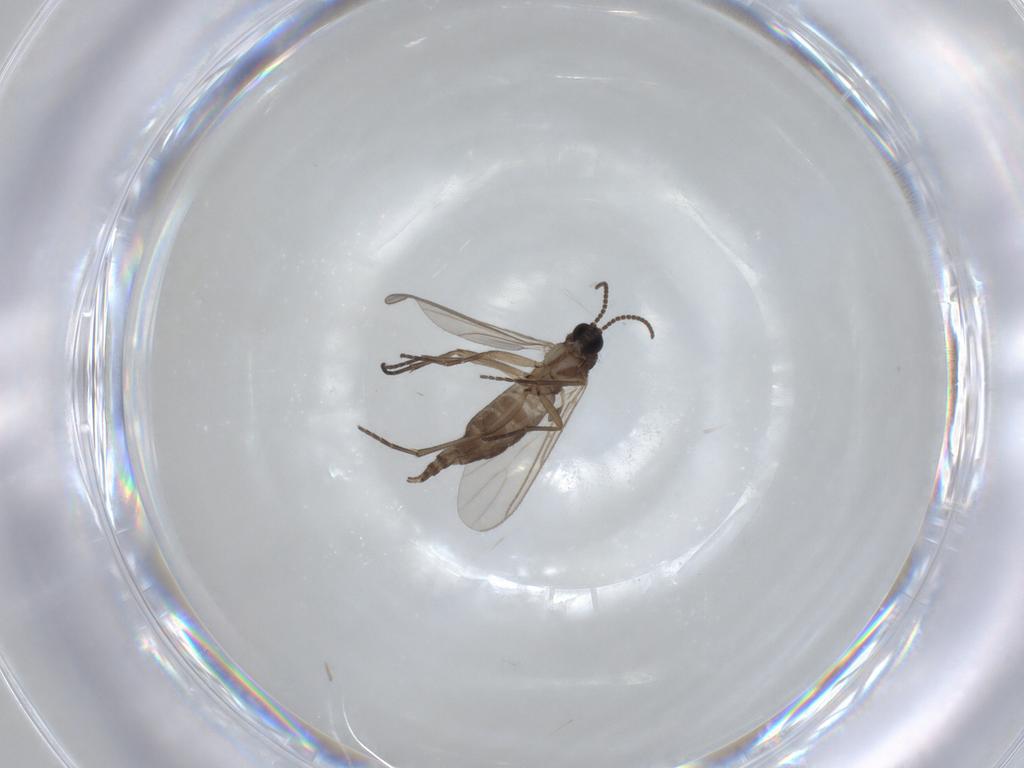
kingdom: Animalia
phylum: Arthropoda
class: Insecta
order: Diptera
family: Sciaridae
